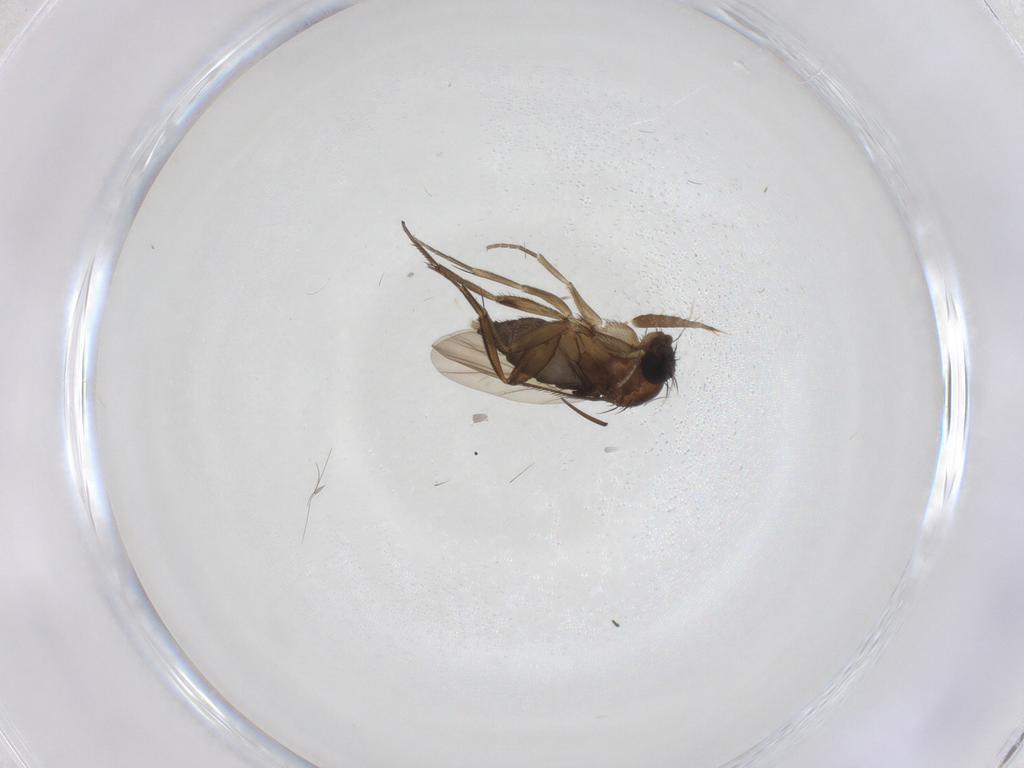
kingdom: Animalia
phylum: Arthropoda
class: Insecta
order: Diptera
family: Phoridae
